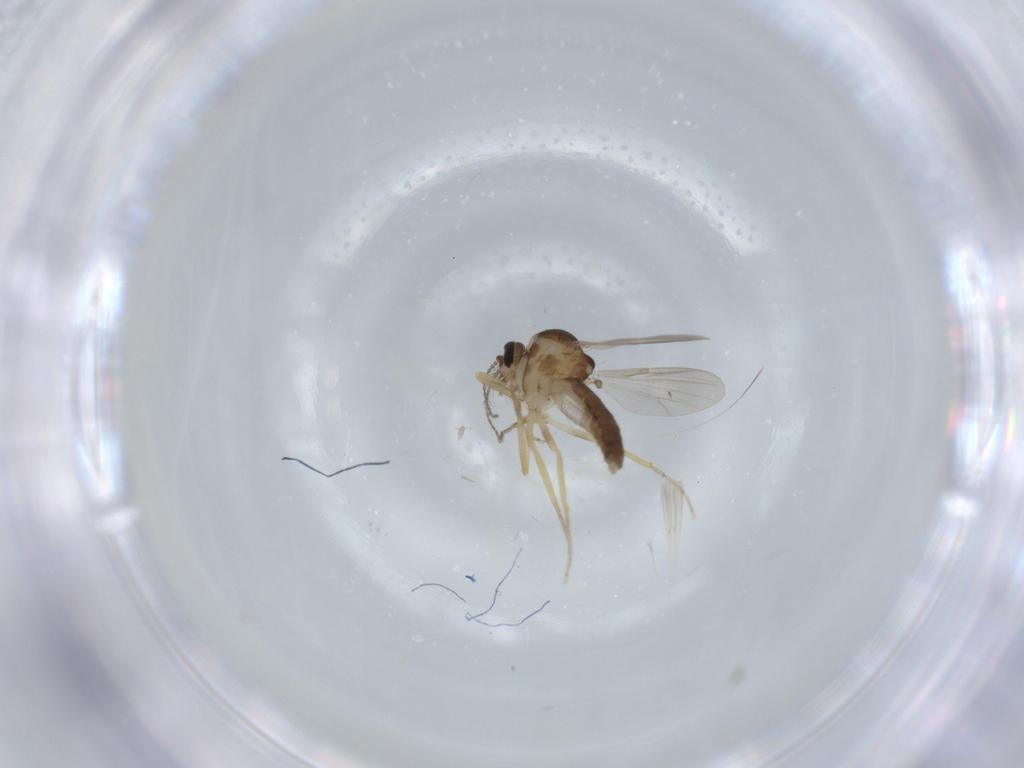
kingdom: Animalia
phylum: Arthropoda
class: Insecta
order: Diptera
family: Ceratopogonidae
